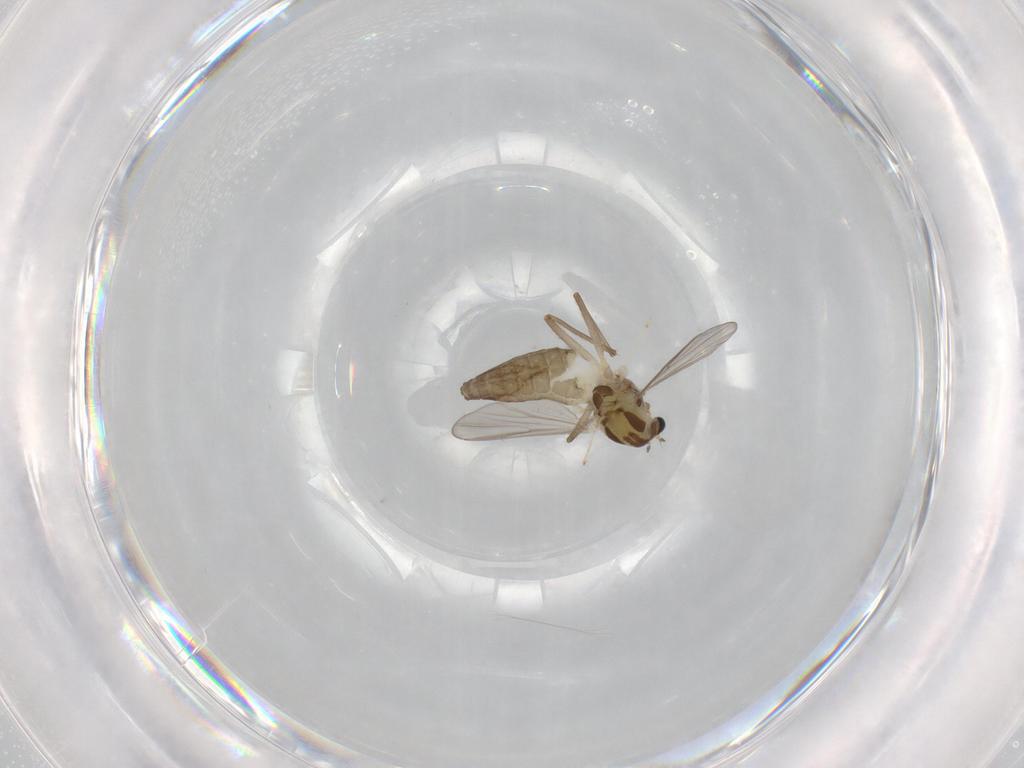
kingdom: Animalia
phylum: Arthropoda
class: Insecta
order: Diptera
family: Chironomidae
